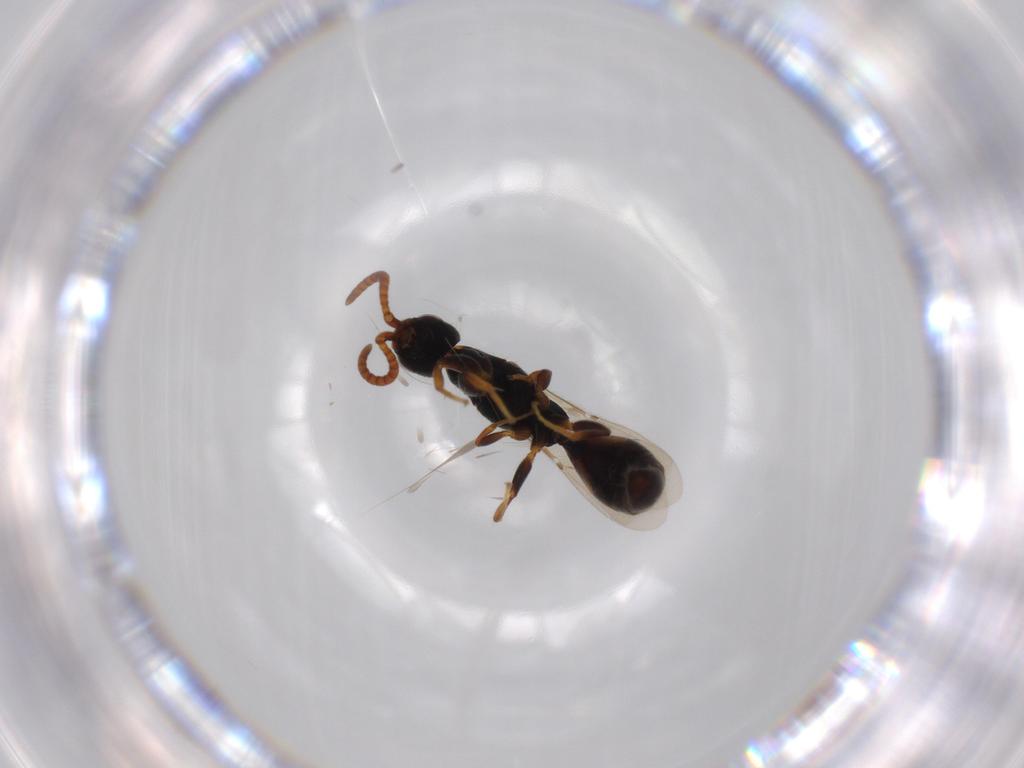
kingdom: Animalia
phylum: Arthropoda
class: Insecta
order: Hymenoptera
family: Bethylidae
